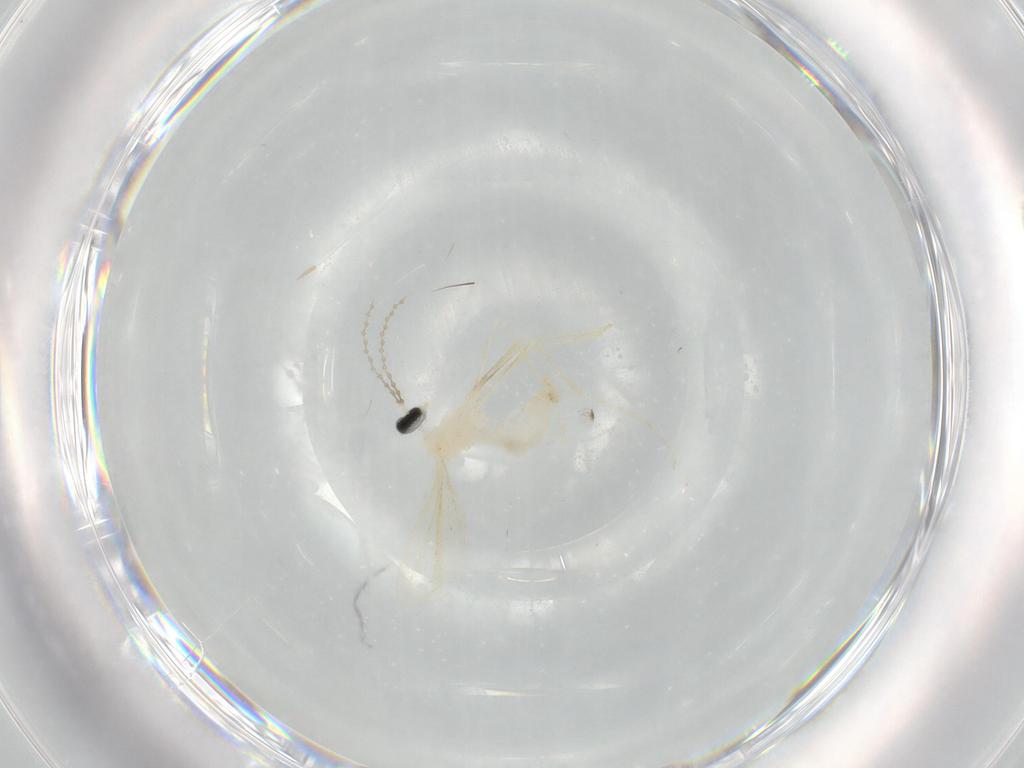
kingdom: Animalia
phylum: Arthropoda
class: Insecta
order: Diptera
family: Cecidomyiidae
